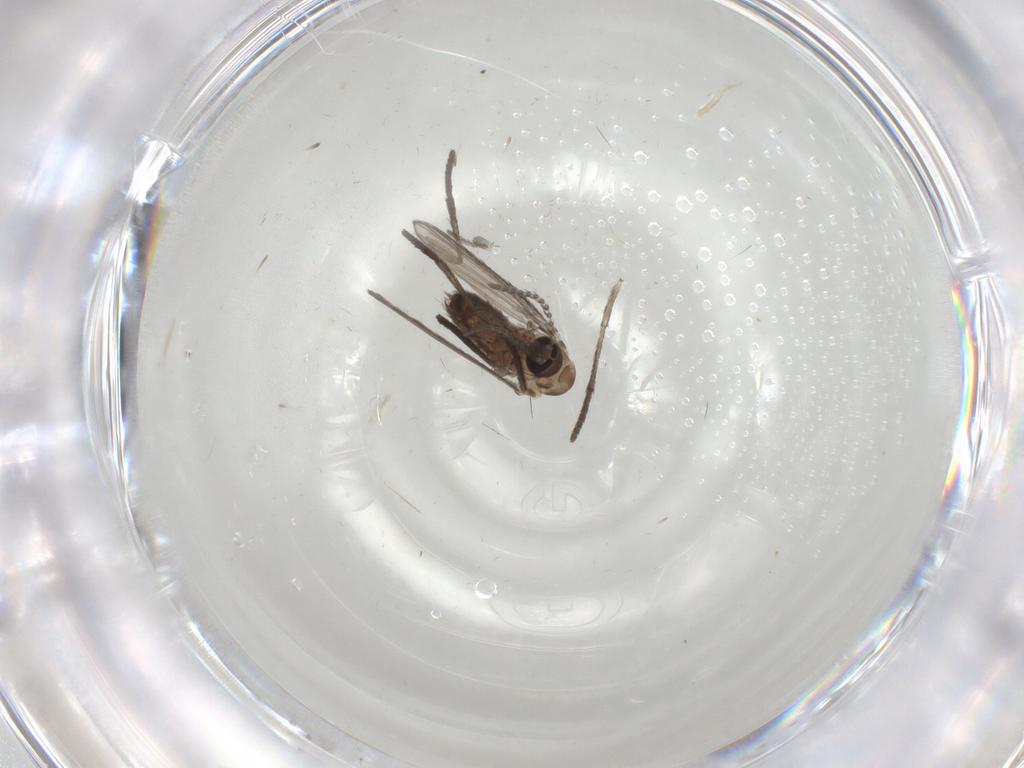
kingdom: Animalia
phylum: Arthropoda
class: Insecta
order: Diptera
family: Psychodidae
